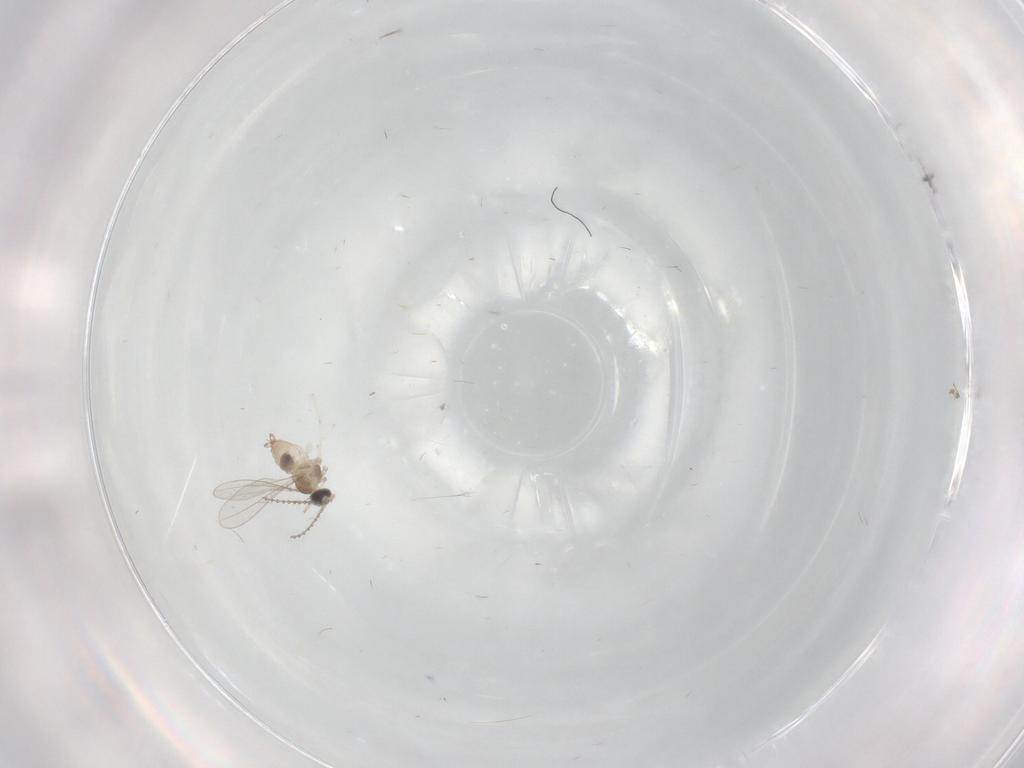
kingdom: Animalia
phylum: Arthropoda
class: Insecta
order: Diptera
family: Cecidomyiidae
